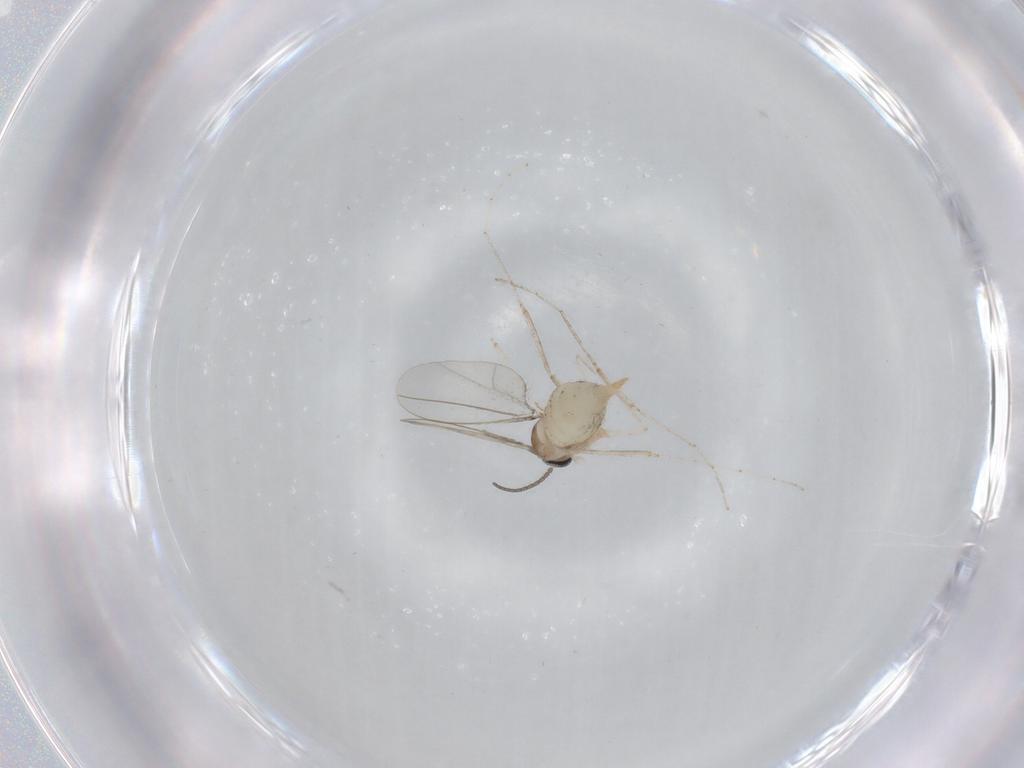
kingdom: Animalia
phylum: Arthropoda
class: Insecta
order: Diptera
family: Cecidomyiidae
